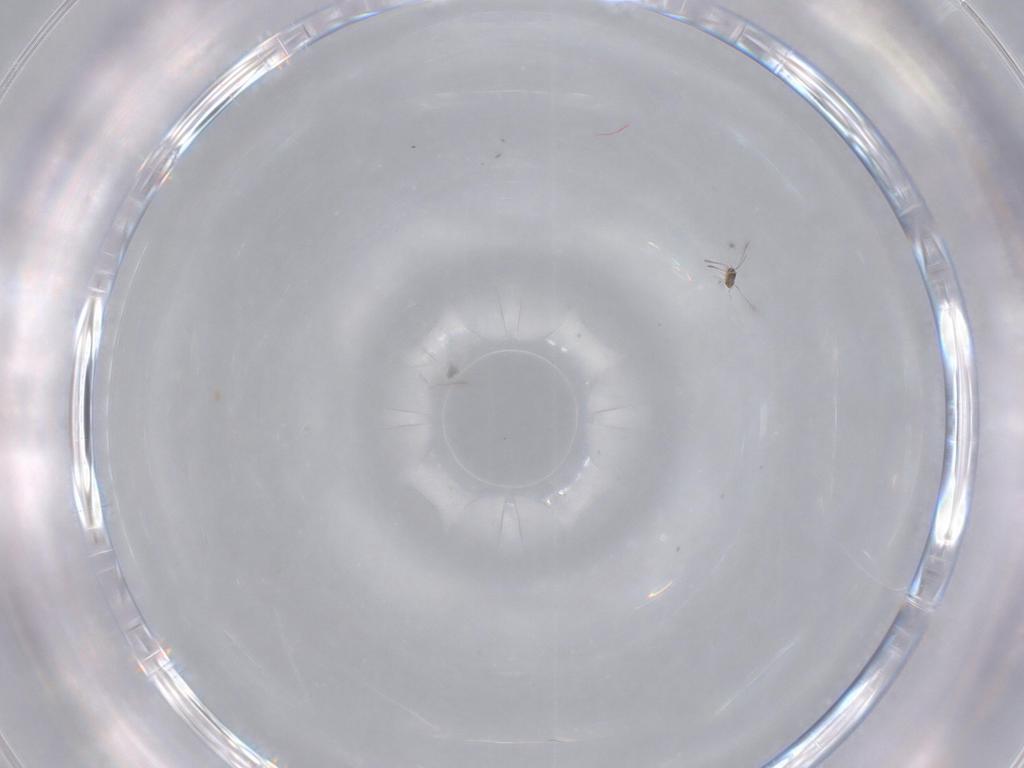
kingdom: Animalia
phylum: Arthropoda
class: Insecta
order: Hymenoptera
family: Mymaridae
